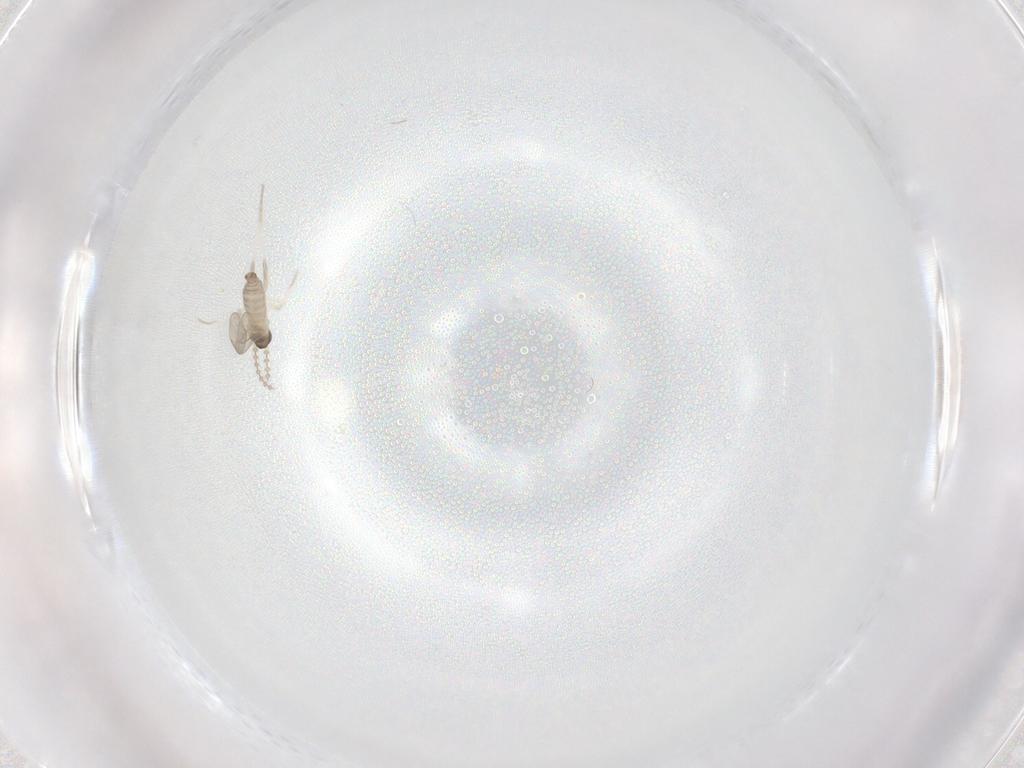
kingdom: Animalia
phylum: Arthropoda
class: Insecta
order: Diptera
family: Cecidomyiidae
